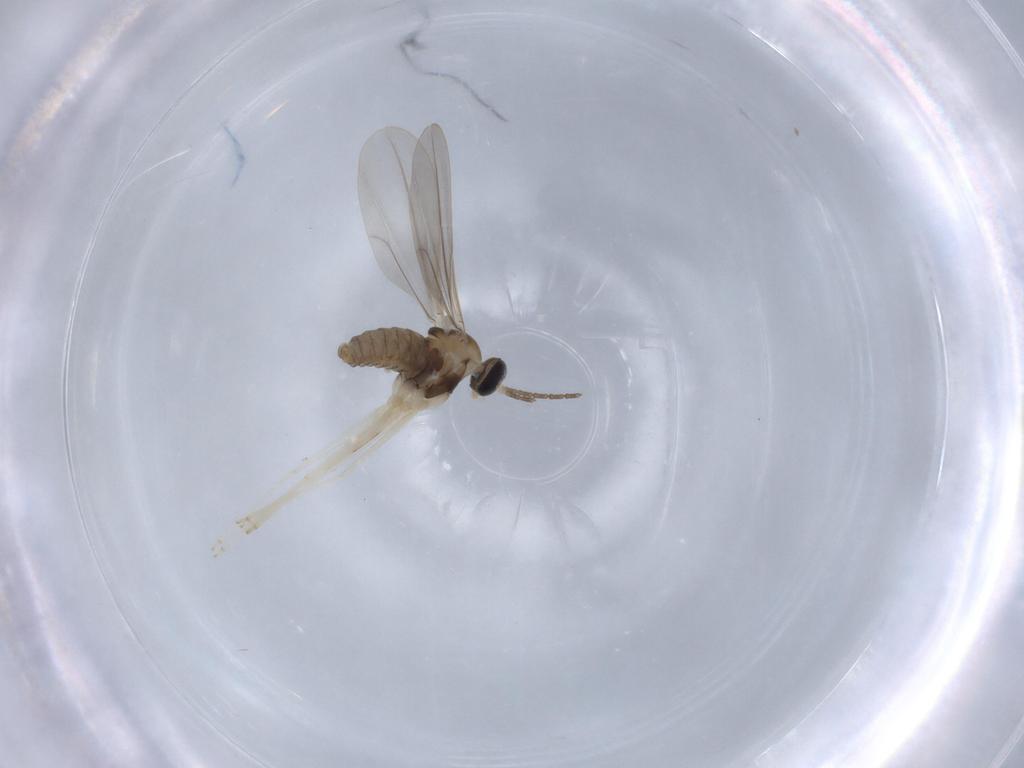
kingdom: Animalia
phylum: Arthropoda
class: Insecta
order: Diptera
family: Cecidomyiidae
